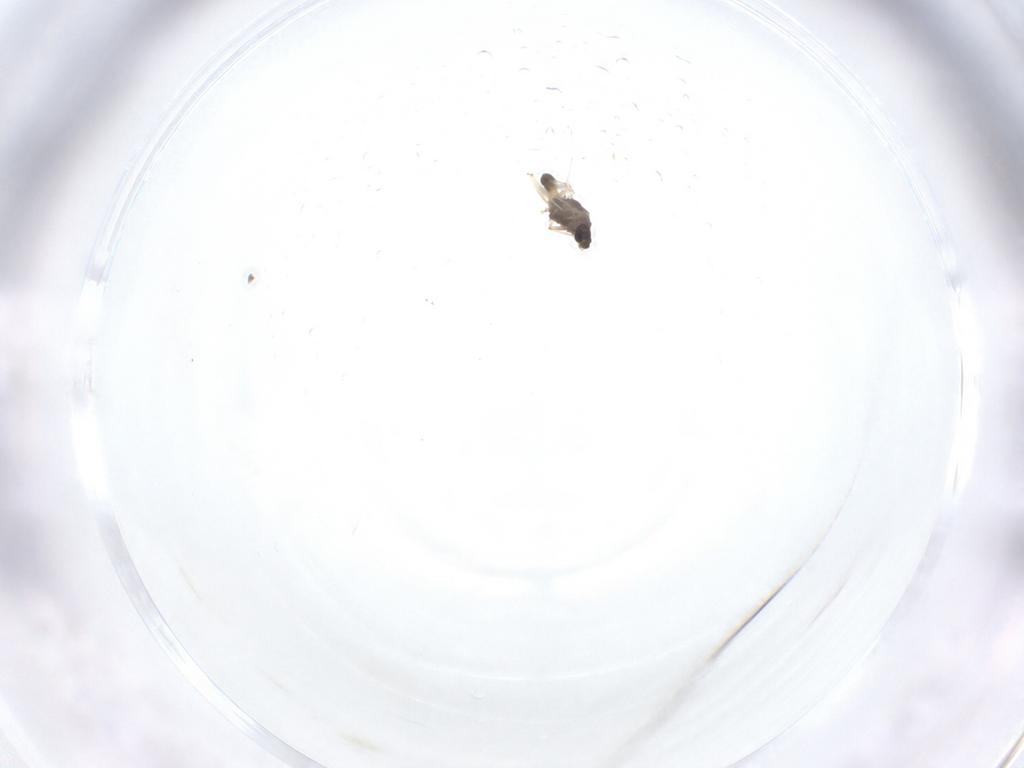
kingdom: Animalia
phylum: Arthropoda
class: Insecta
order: Diptera
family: Chironomidae
